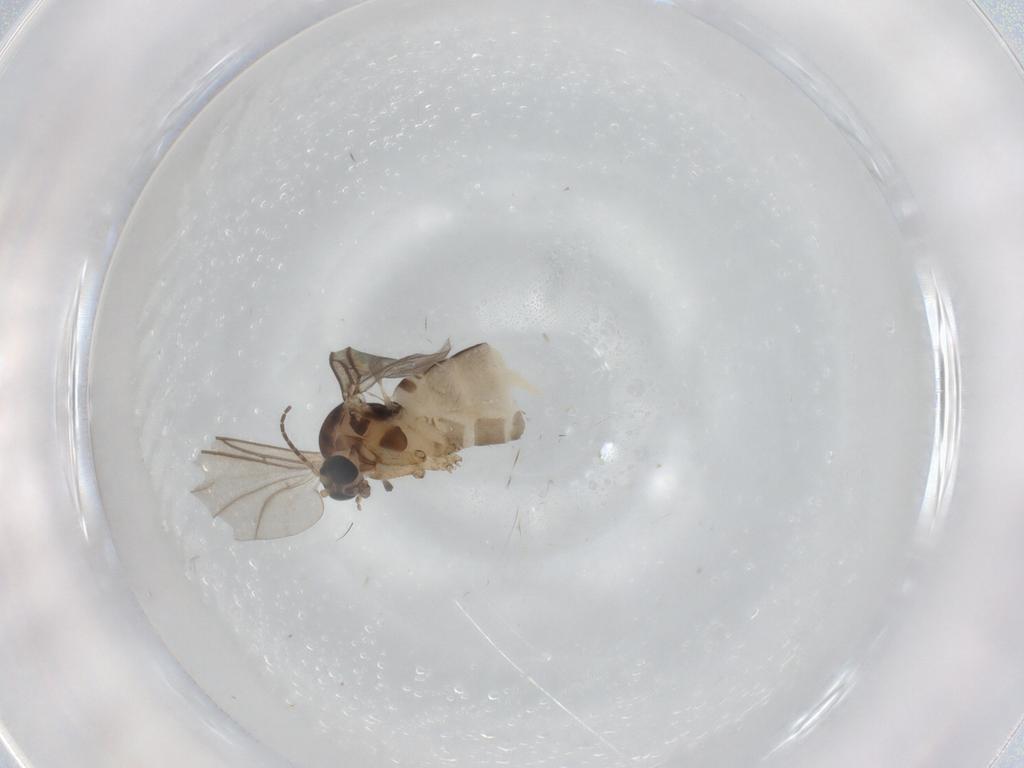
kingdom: Animalia
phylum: Arthropoda
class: Insecta
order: Diptera
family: Sciaridae
